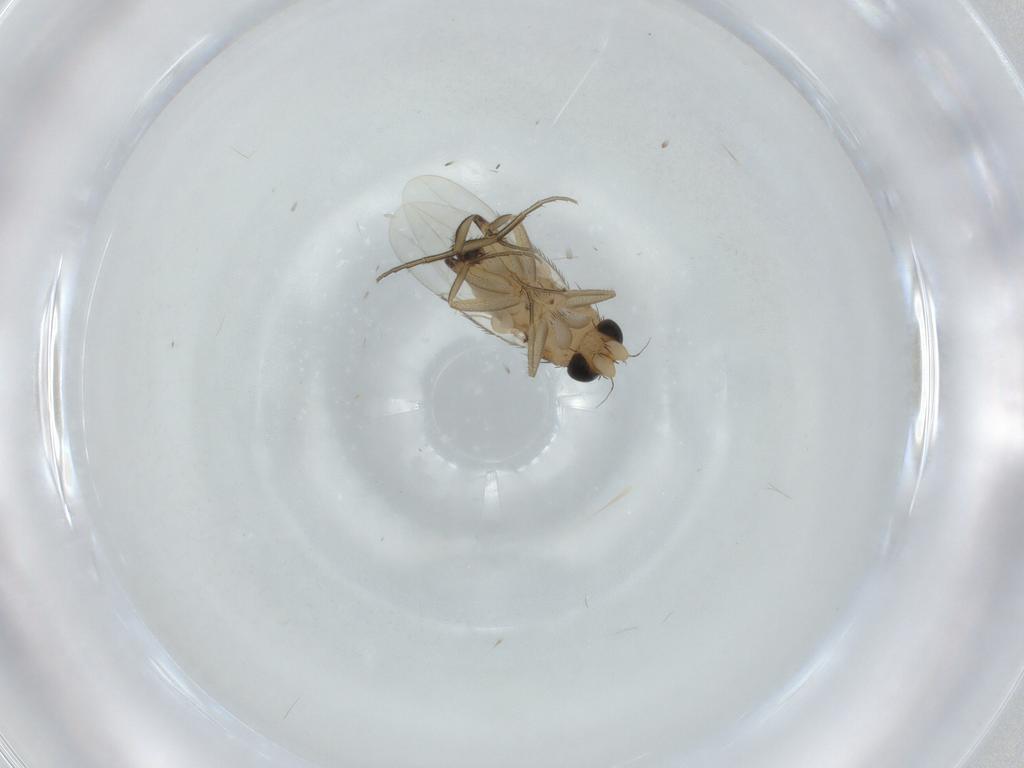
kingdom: Animalia
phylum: Arthropoda
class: Insecta
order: Diptera
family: Phoridae
